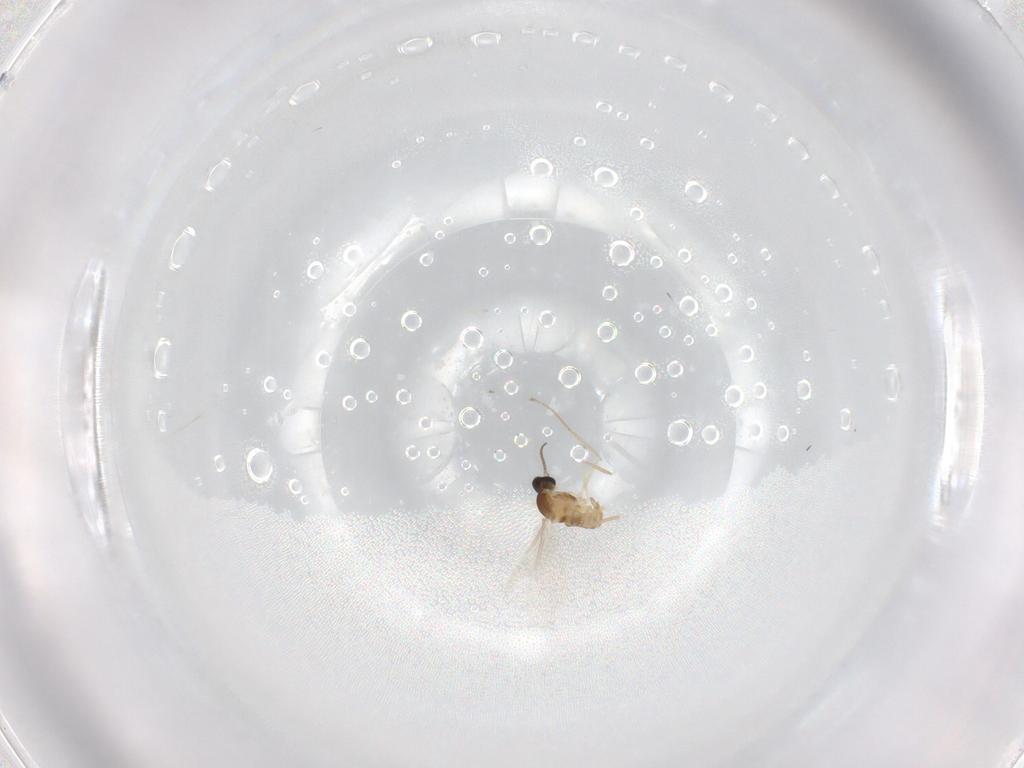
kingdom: Animalia
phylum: Arthropoda
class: Insecta
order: Diptera
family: Cecidomyiidae
